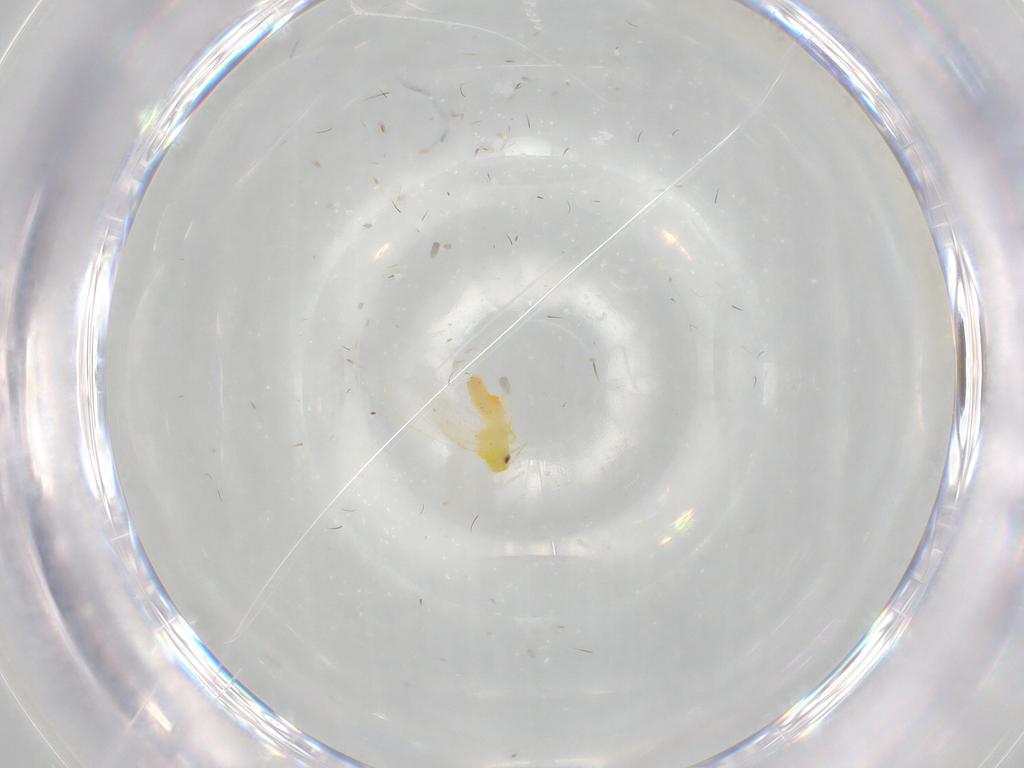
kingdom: Animalia
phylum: Arthropoda
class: Insecta
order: Hemiptera
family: Aleyrodidae
